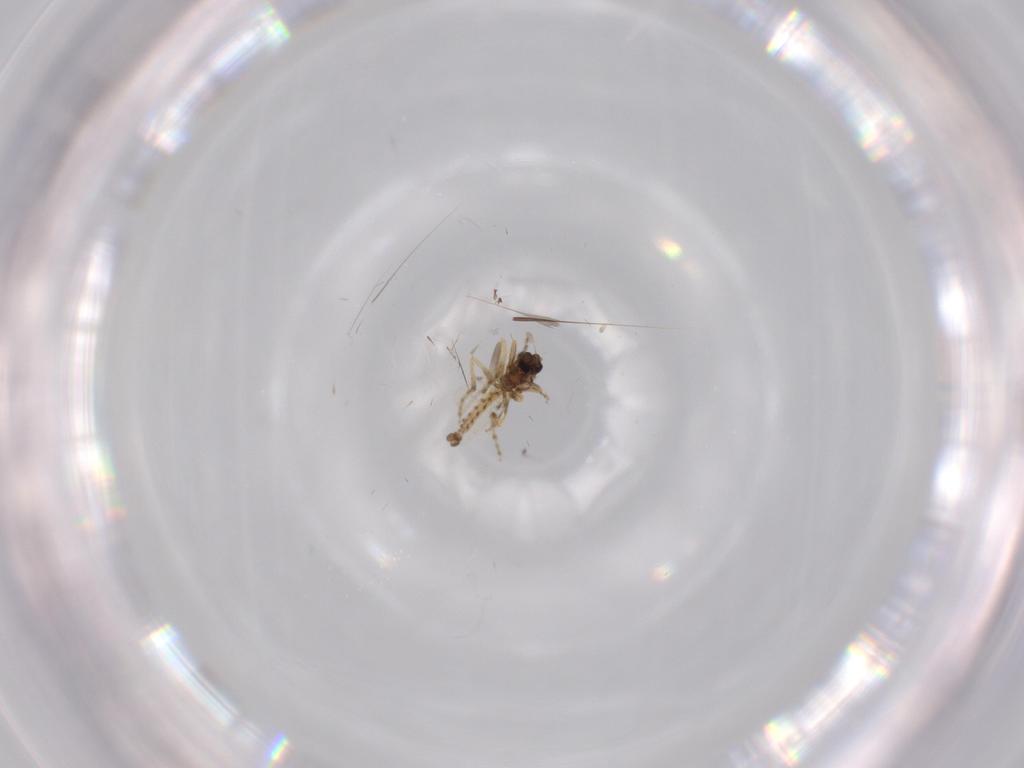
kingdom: Animalia
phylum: Arthropoda
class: Insecta
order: Diptera
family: Ceratopogonidae
